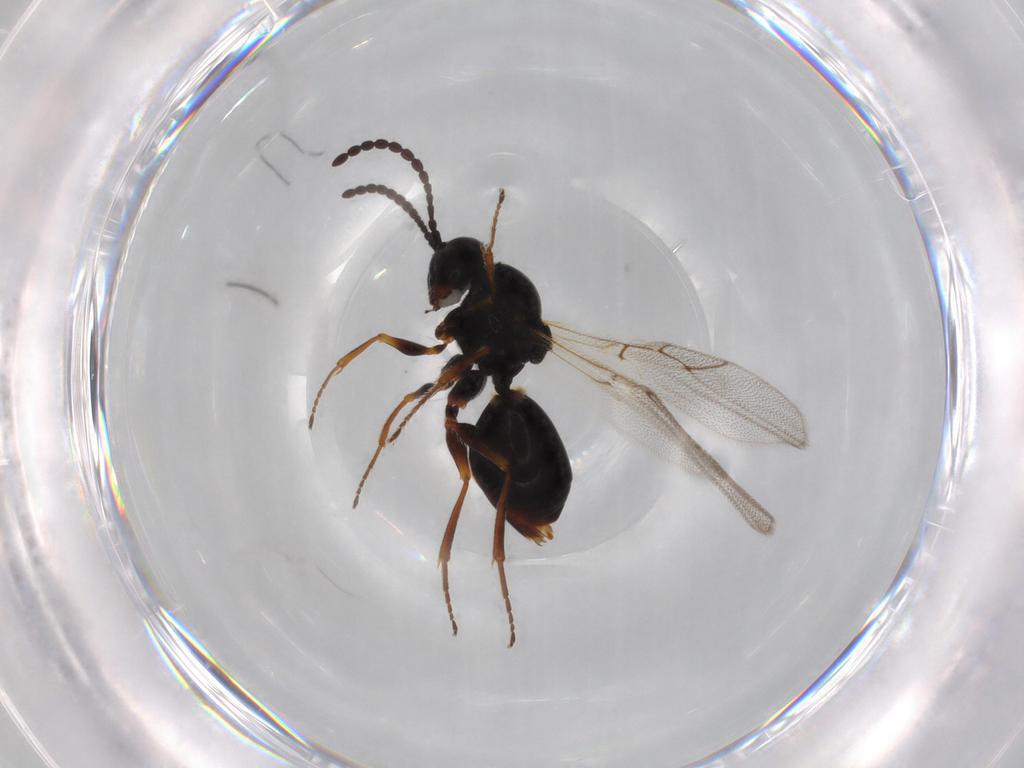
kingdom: Animalia
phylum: Arthropoda
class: Insecta
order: Hymenoptera
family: Figitidae
